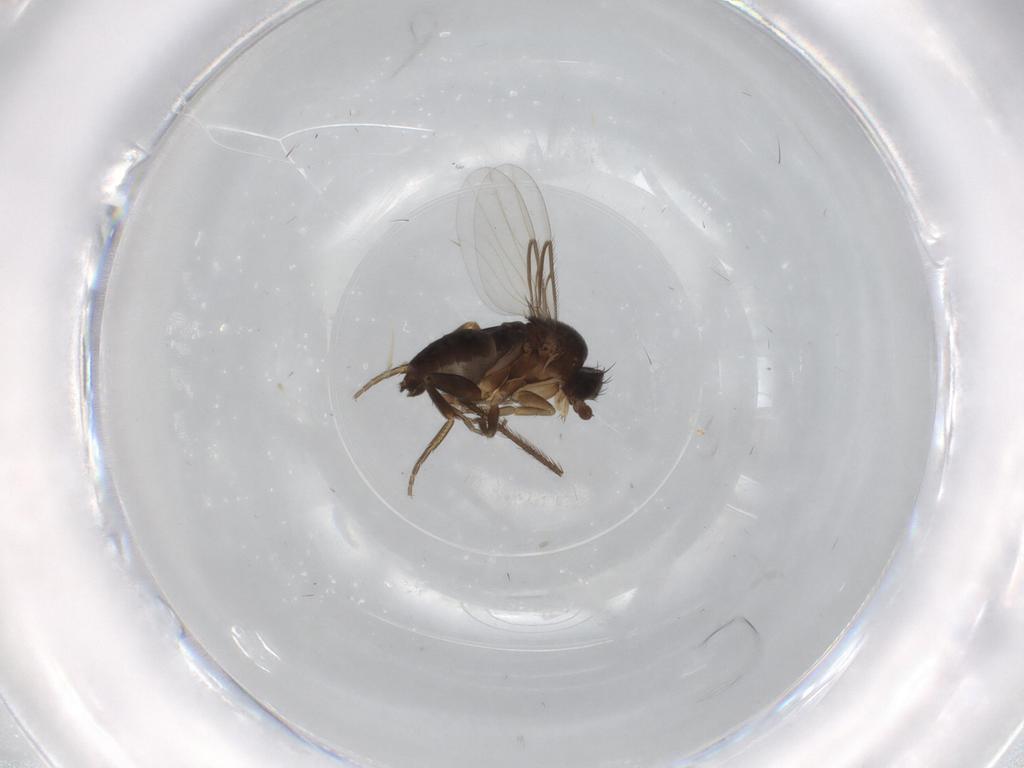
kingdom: Animalia
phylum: Arthropoda
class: Insecta
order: Diptera
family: Limoniidae
